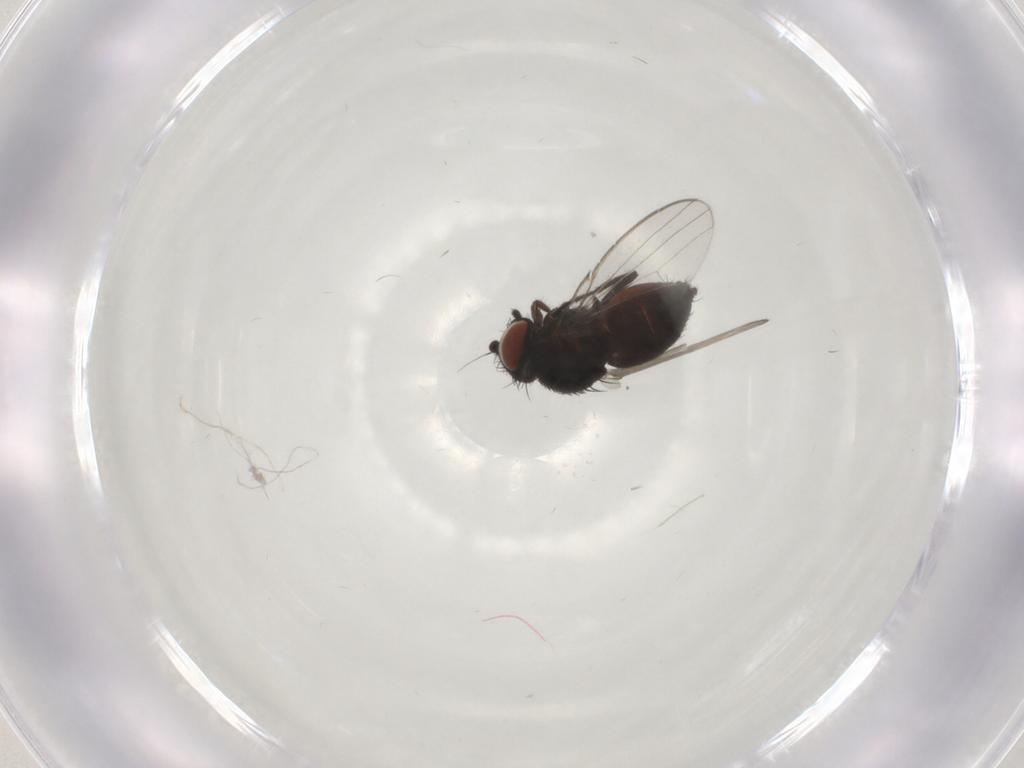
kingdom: Animalia
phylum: Arthropoda
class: Insecta
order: Diptera
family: Milichiidae
